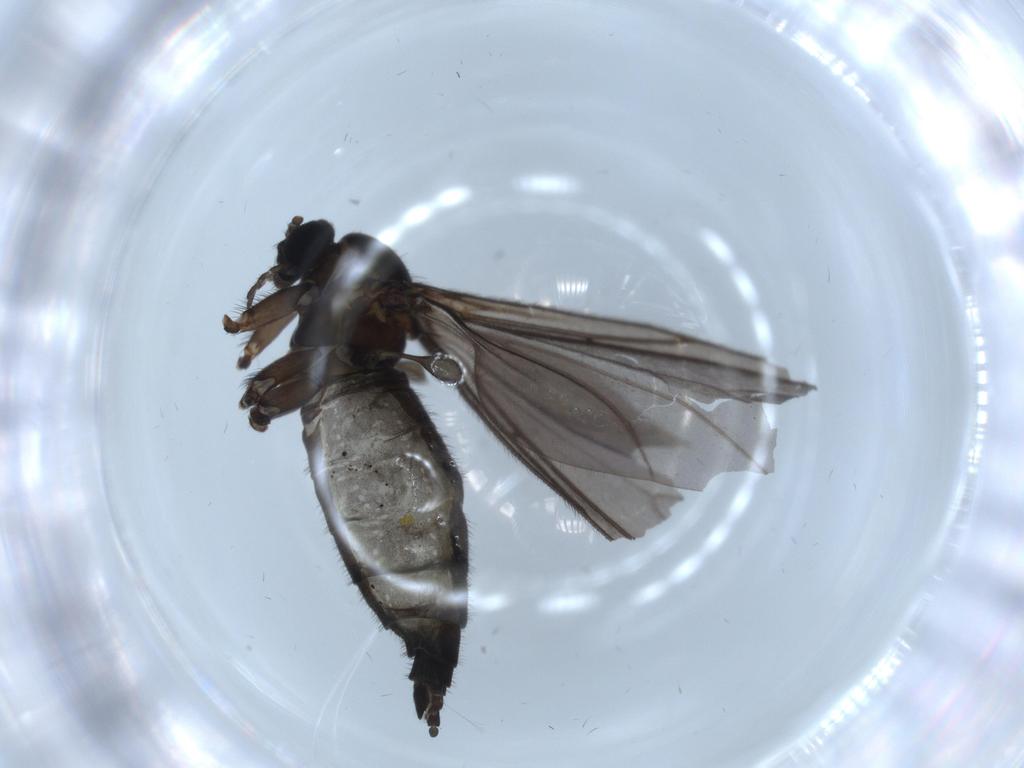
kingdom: Animalia
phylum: Arthropoda
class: Insecta
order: Diptera
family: Sciaridae
